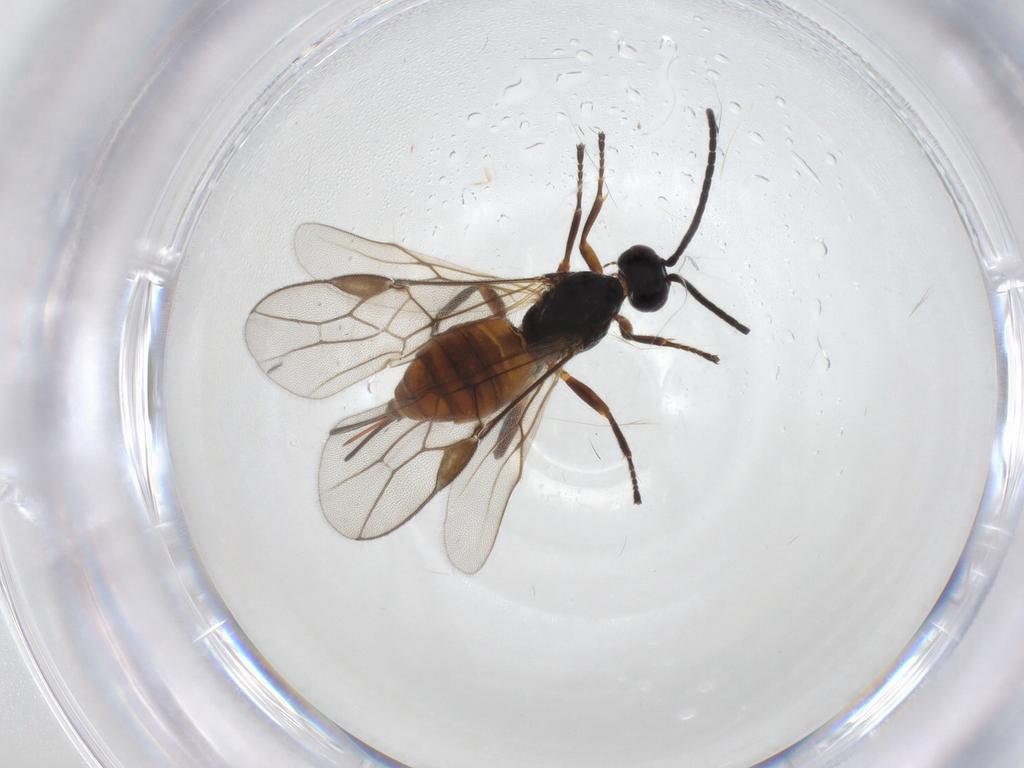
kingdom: Animalia
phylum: Arthropoda
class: Insecta
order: Hymenoptera
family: Braconidae
